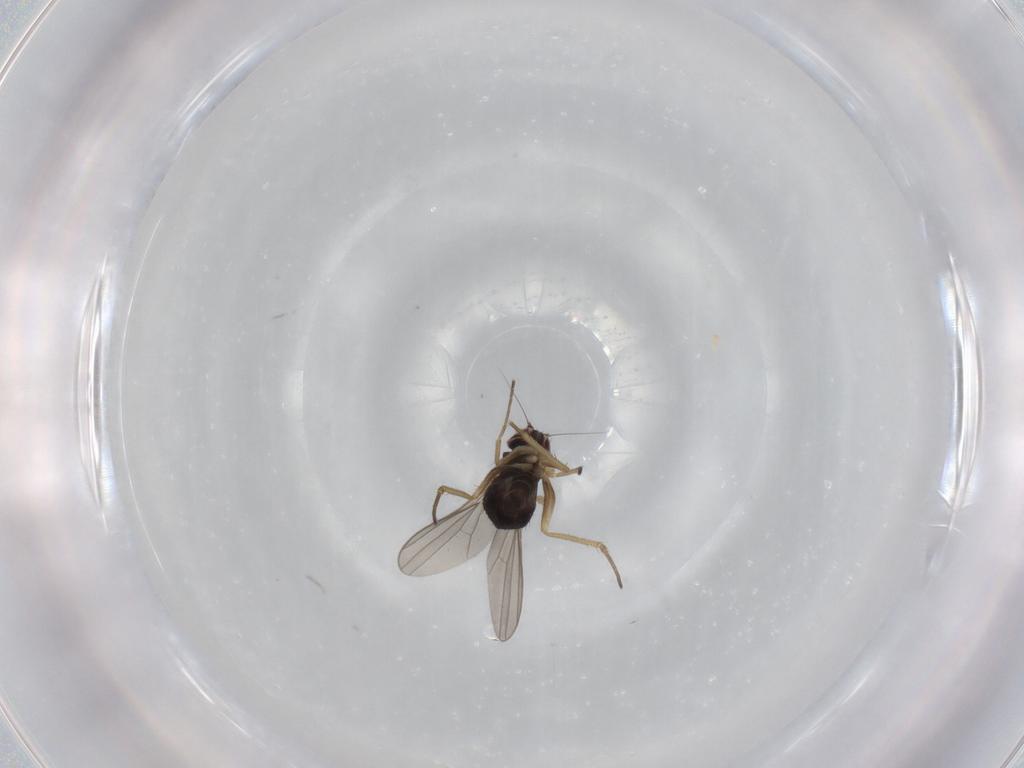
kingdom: Animalia
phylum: Arthropoda
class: Insecta
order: Diptera
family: Dolichopodidae
